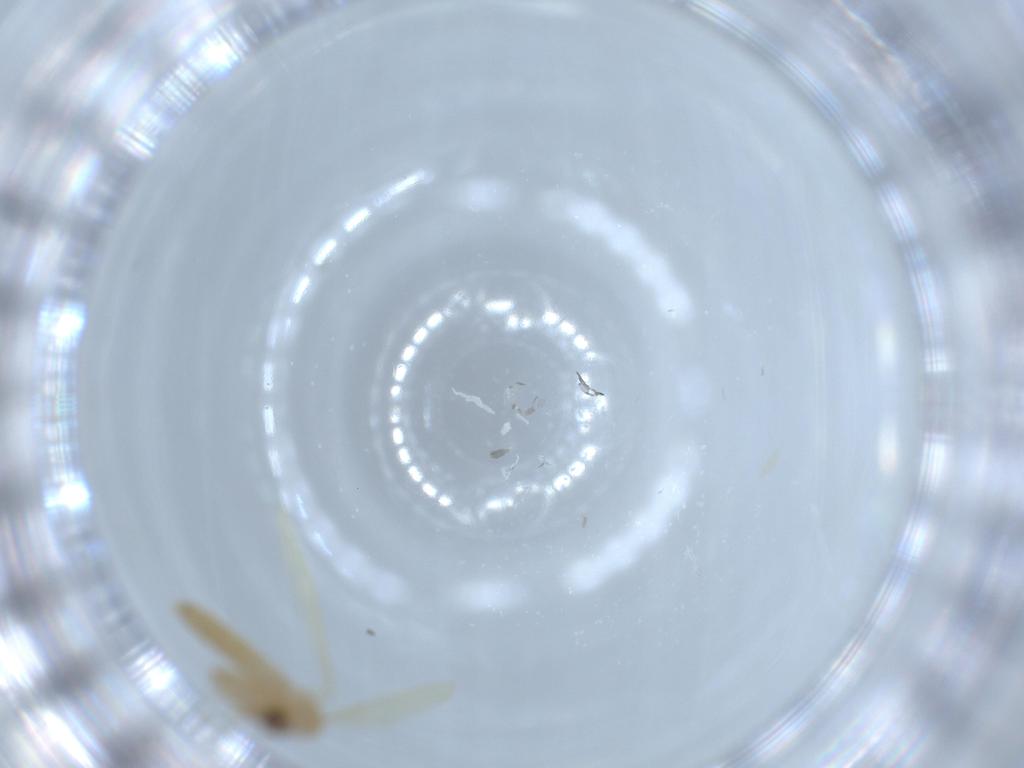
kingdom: Animalia
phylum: Arthropoda
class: Insecta
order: Diptera
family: Psychodidae
